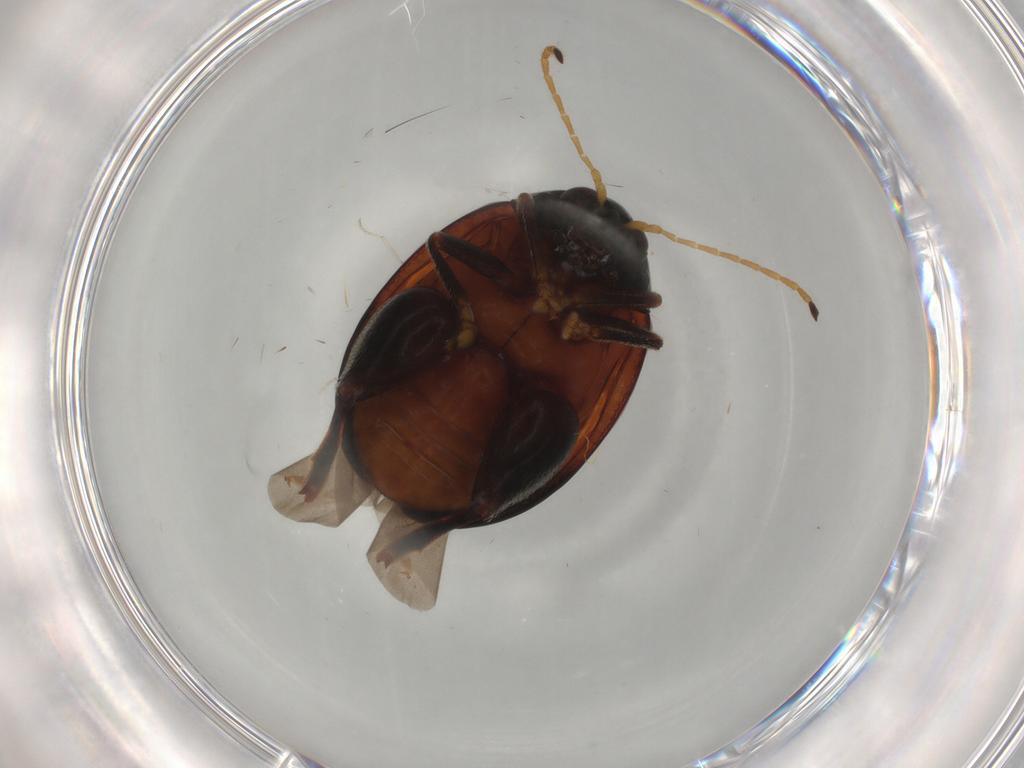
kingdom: Animalia
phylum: Arthropoda
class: Insecta
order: Coleoptera
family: Chrysomelidae
